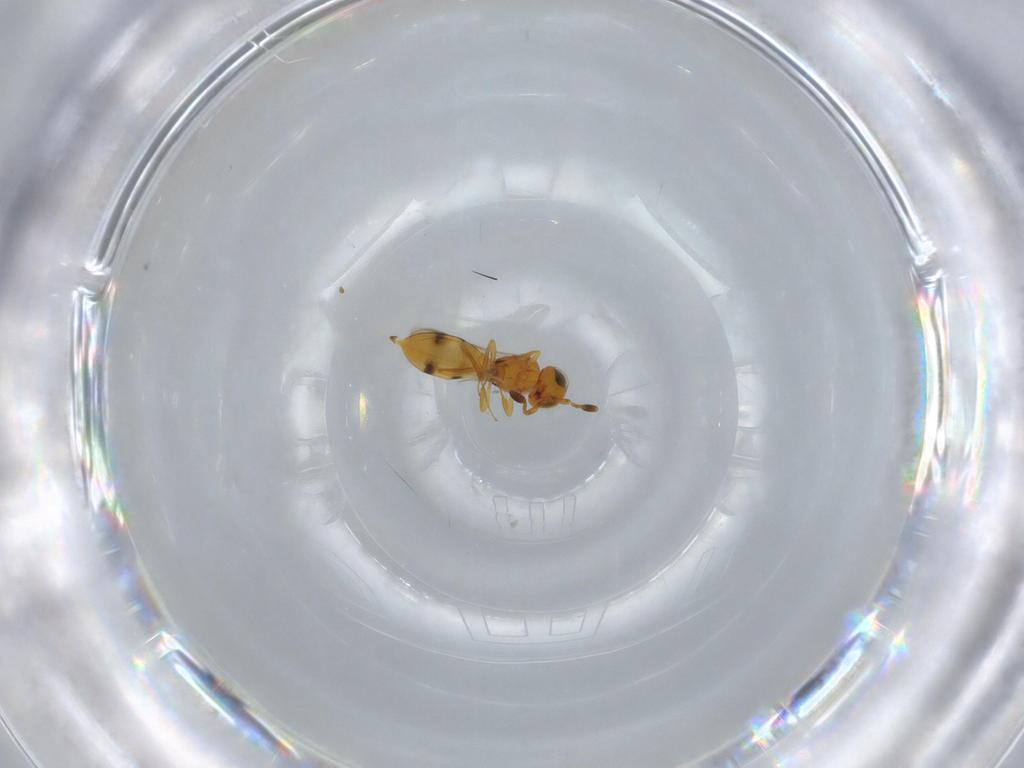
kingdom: Animalia
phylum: Arthropoda
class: Insecta
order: Hymenoptera
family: Scelionidae
